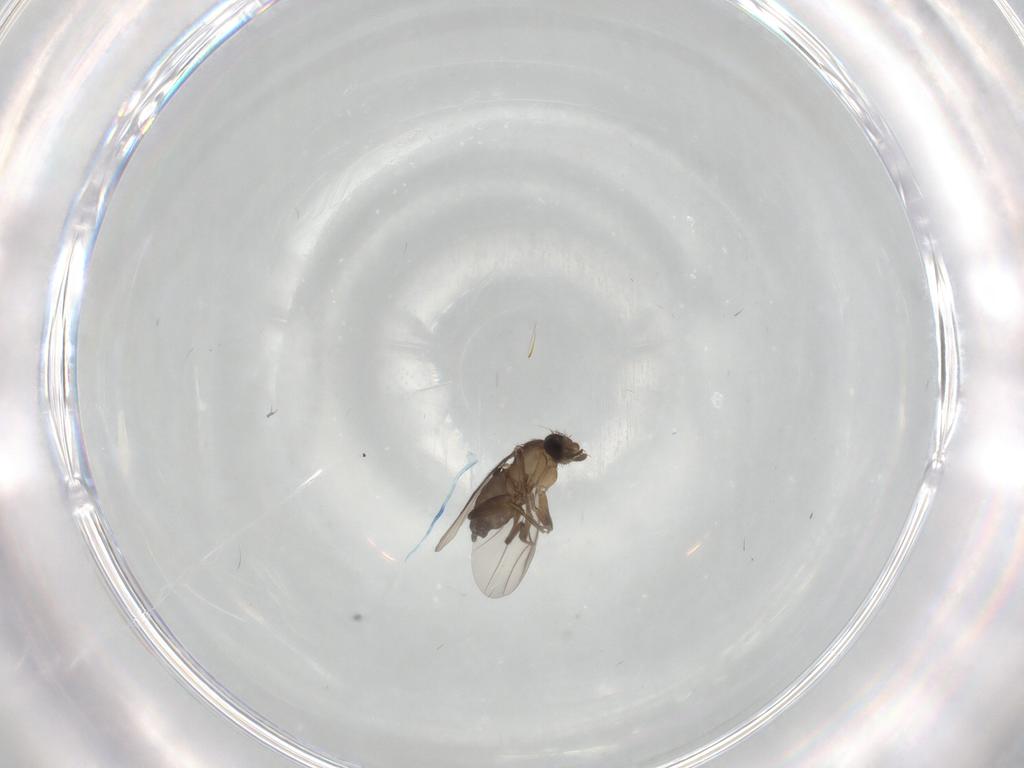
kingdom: Animalia
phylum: Arthropoda
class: Insecta
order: Diptera
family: Phoridae
